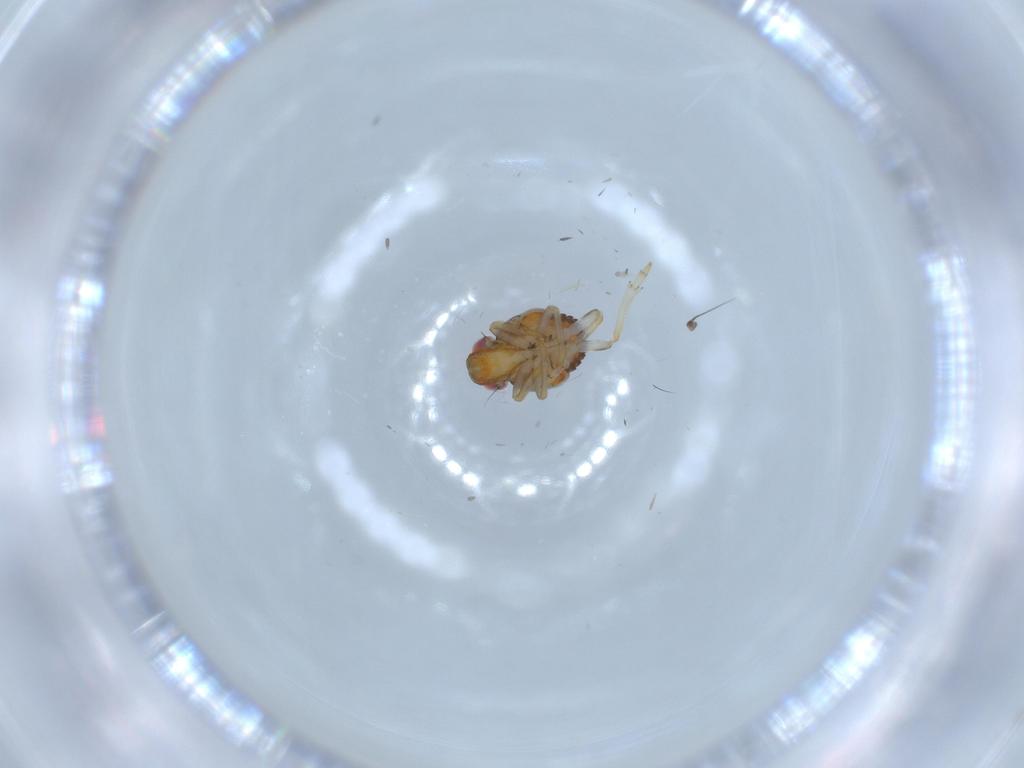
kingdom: Animalia
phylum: Arthropoda
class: Insecta
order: Hemiptera
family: Issidae
